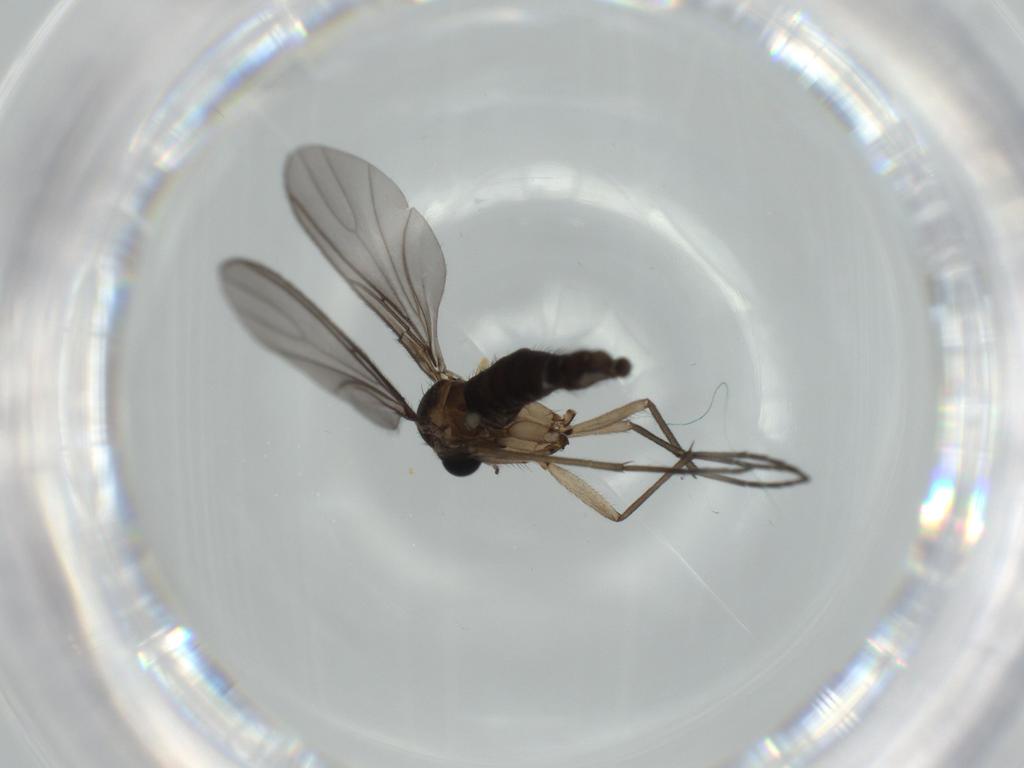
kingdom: Animalia
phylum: Arthropoda
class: Insecta
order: Diptera
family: Sciaridae
